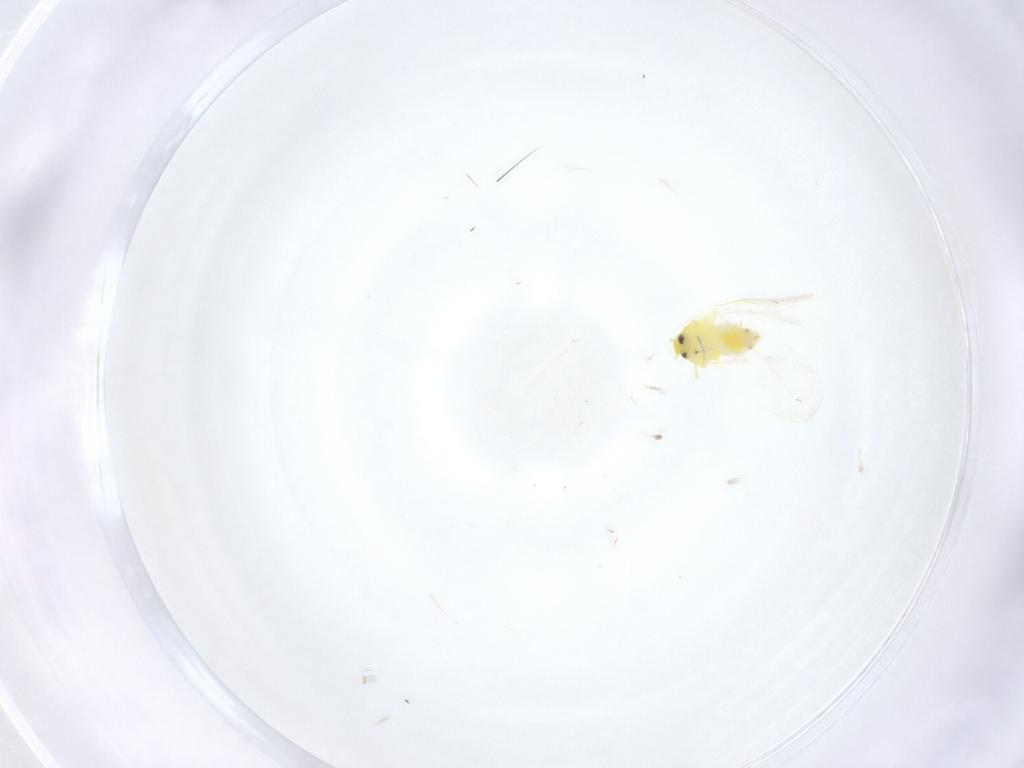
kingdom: Animalia
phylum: Arthropoda
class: Insecta
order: Hemiptera
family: Aleyrodidae
